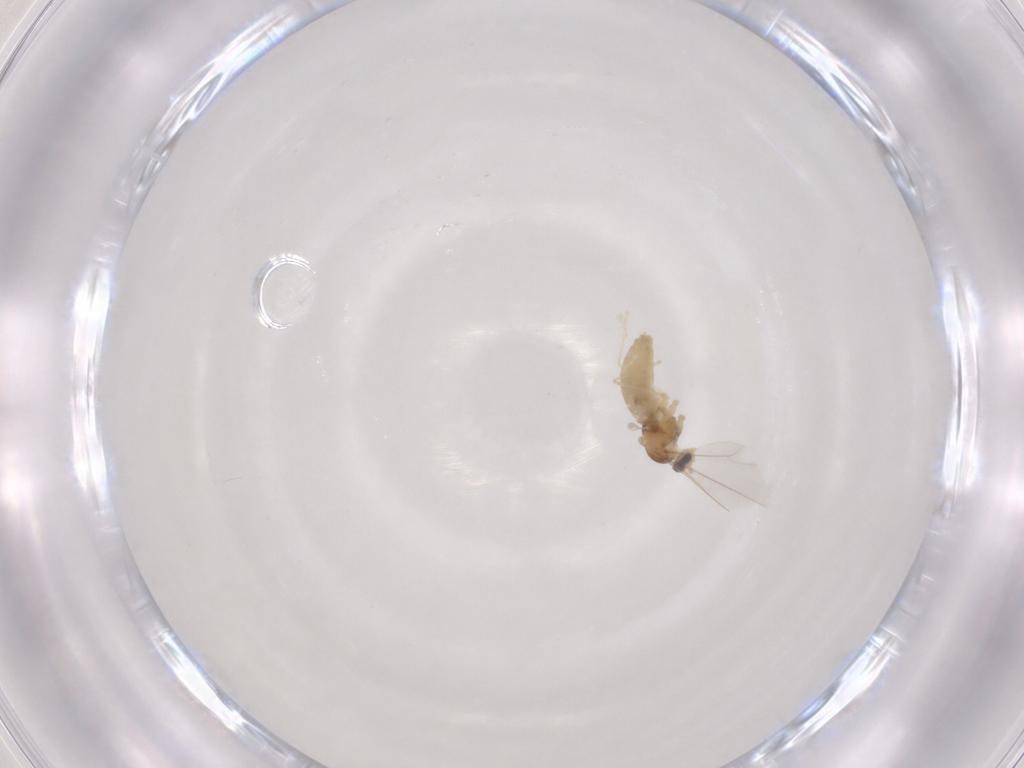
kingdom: Animalia
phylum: Arthropoda
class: Insecta
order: Diptera
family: Cecidomyiidae
